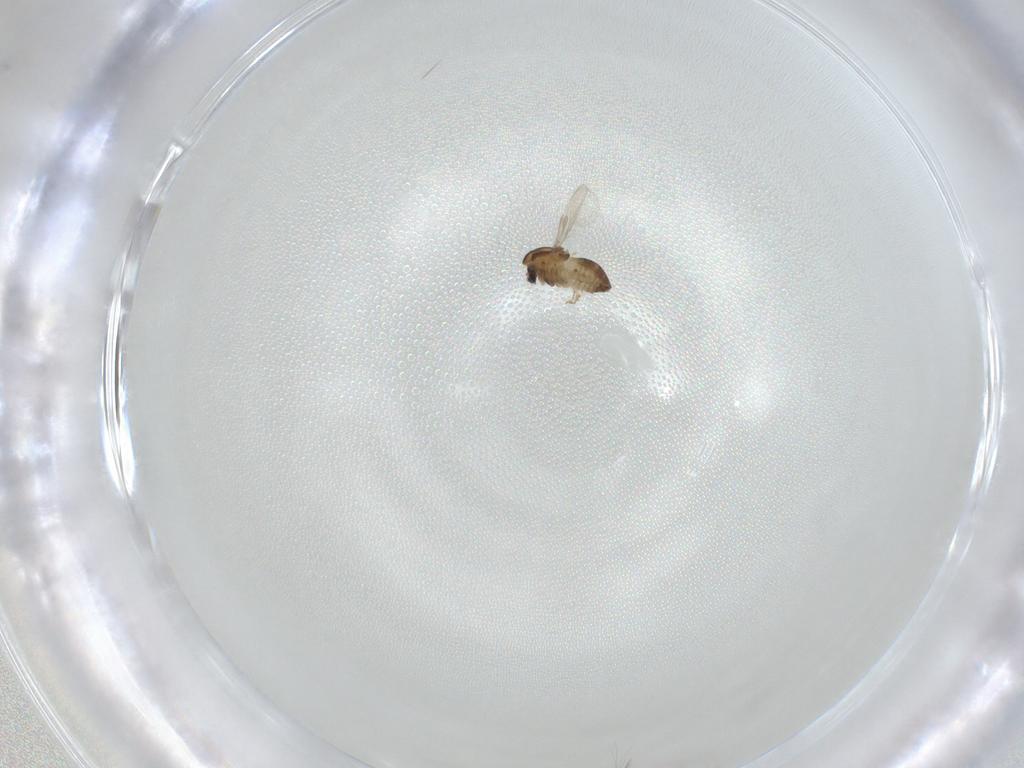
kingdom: Animalia
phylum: Arthropoda
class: Insecta
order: Diptera
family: Chironomidae
